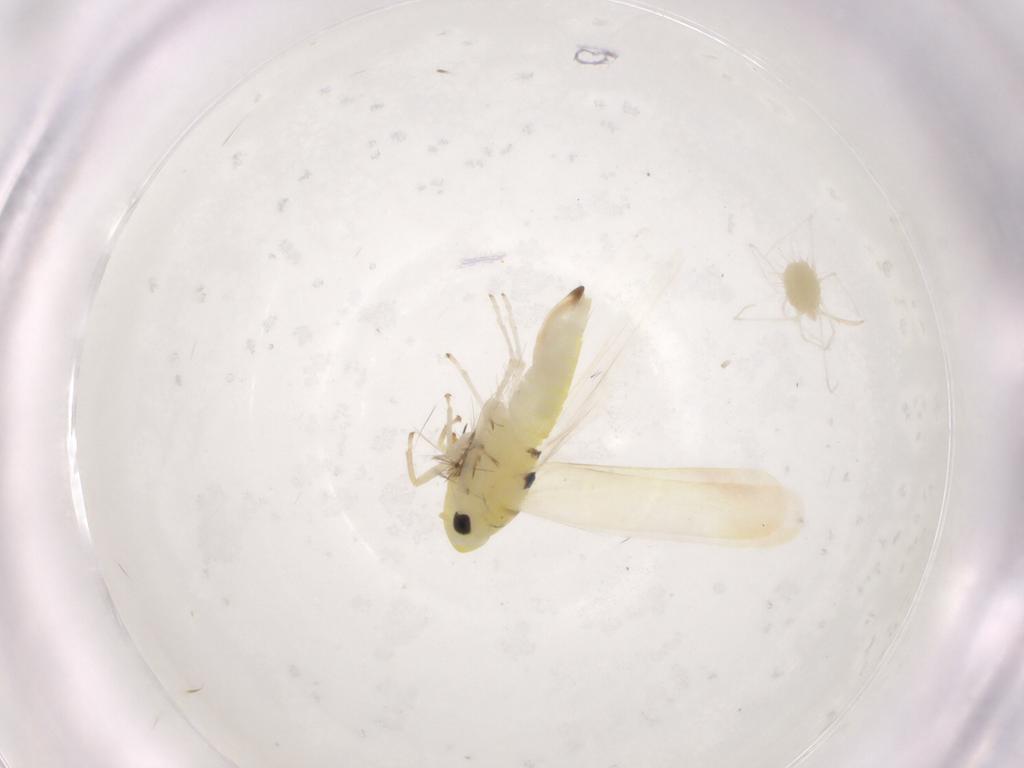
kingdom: Animalia
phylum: Arthropoda
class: Insecta
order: Hemiptera
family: Cicadellidae
